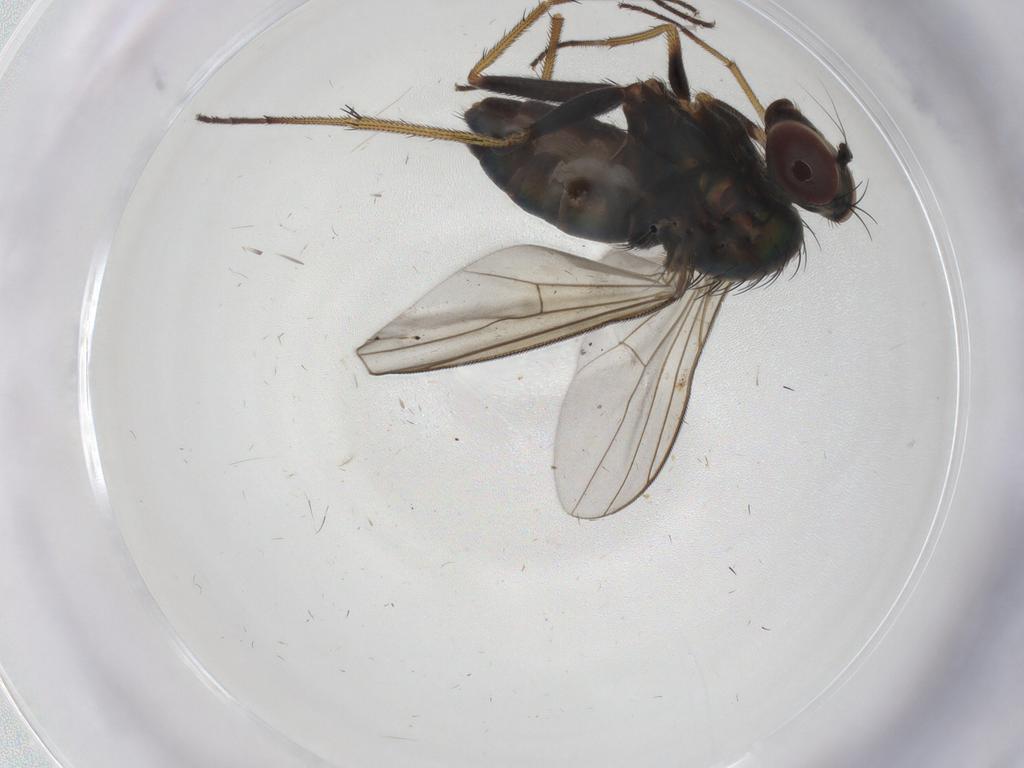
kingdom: Animalia
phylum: Arthropoda
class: Insecta
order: Diptera
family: Dolichopodidae
